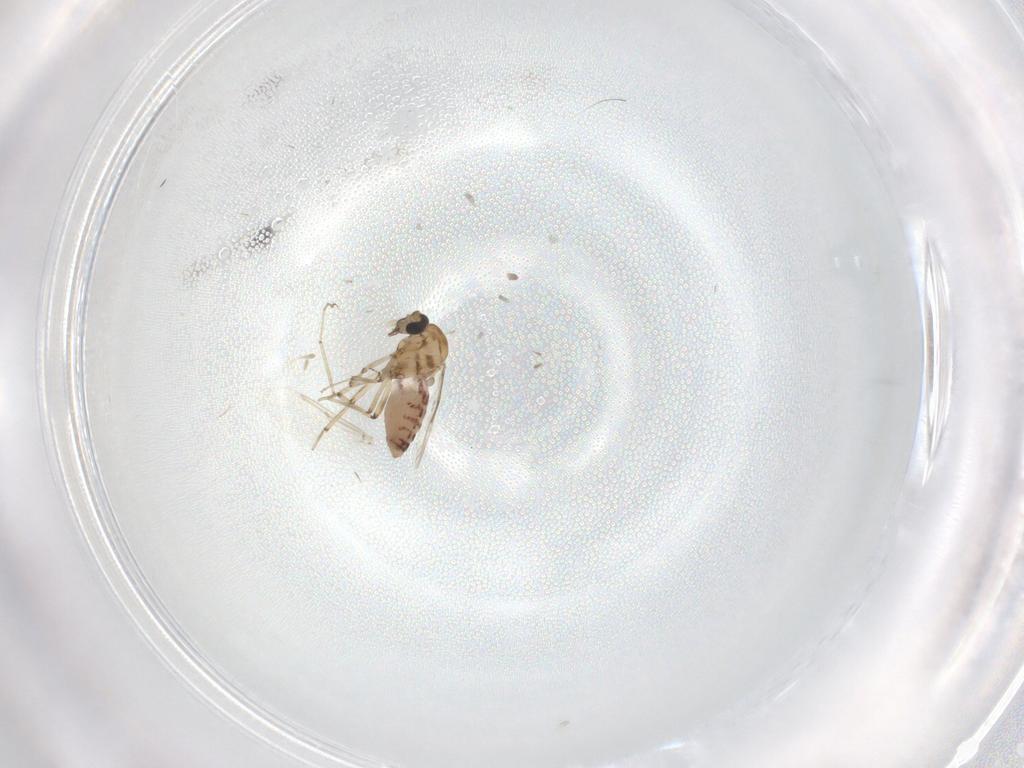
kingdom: Animalia
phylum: Arthropoda
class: Insecta
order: Diptera
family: Ceratopogonidae
